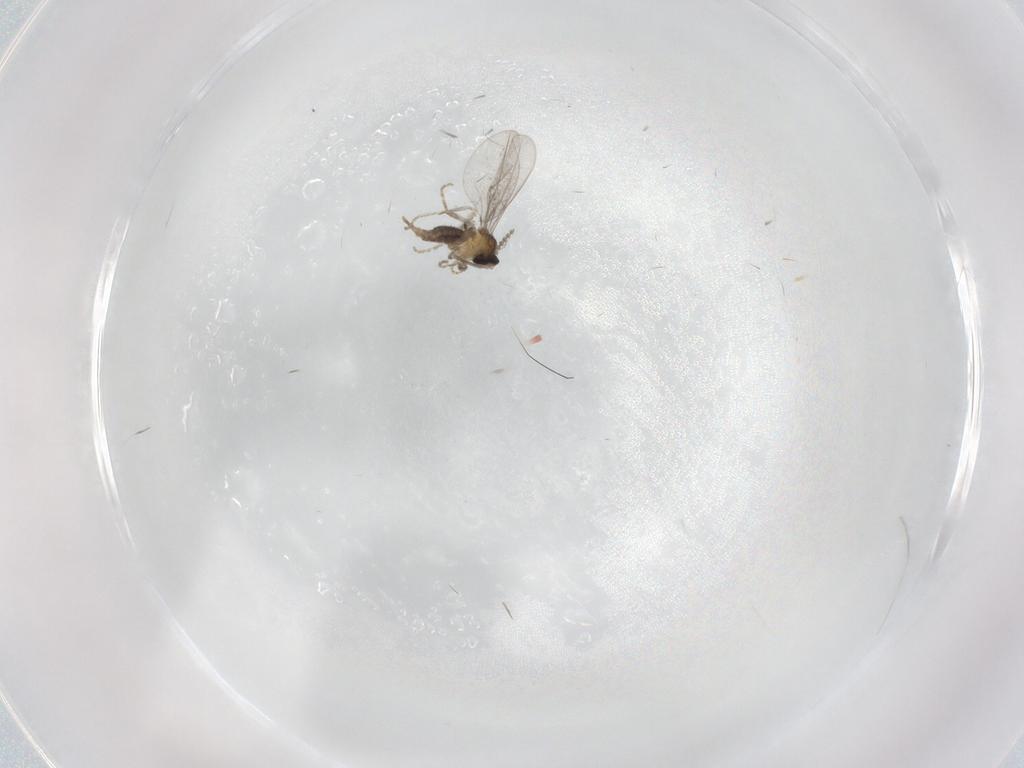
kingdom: Animalia
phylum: Arthropoda
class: Insecta
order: Diptera
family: Cecidomyiidae
